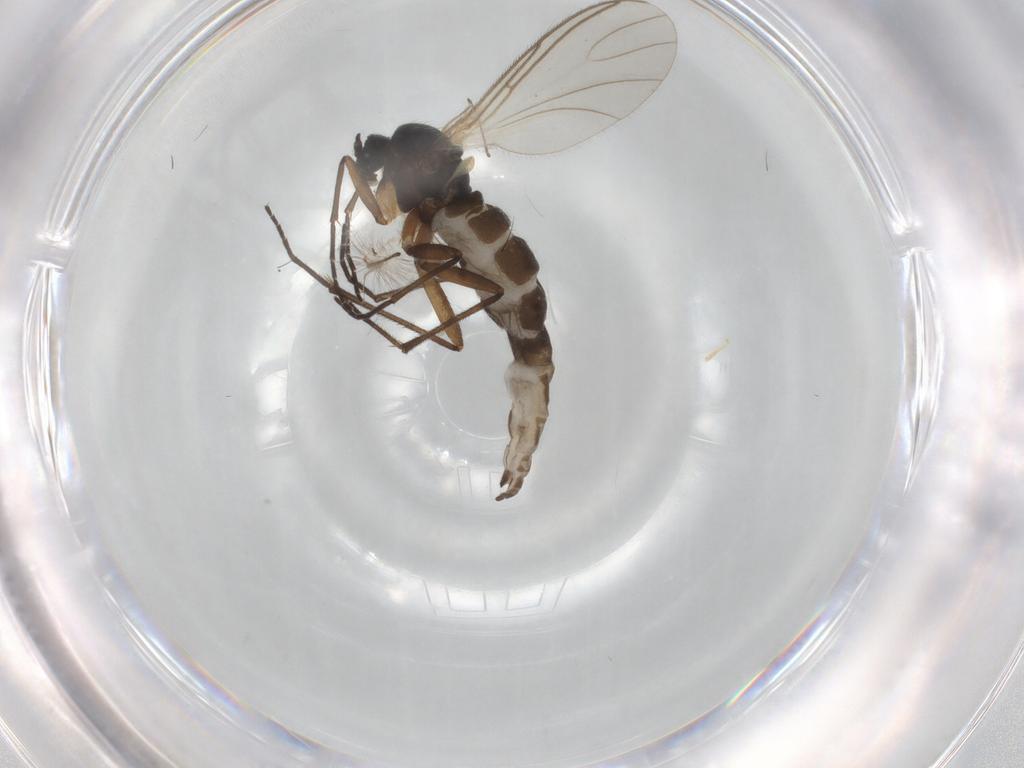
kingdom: Animalia
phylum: Arthropoda
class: Insecta
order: Diptera
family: Sciaridae
